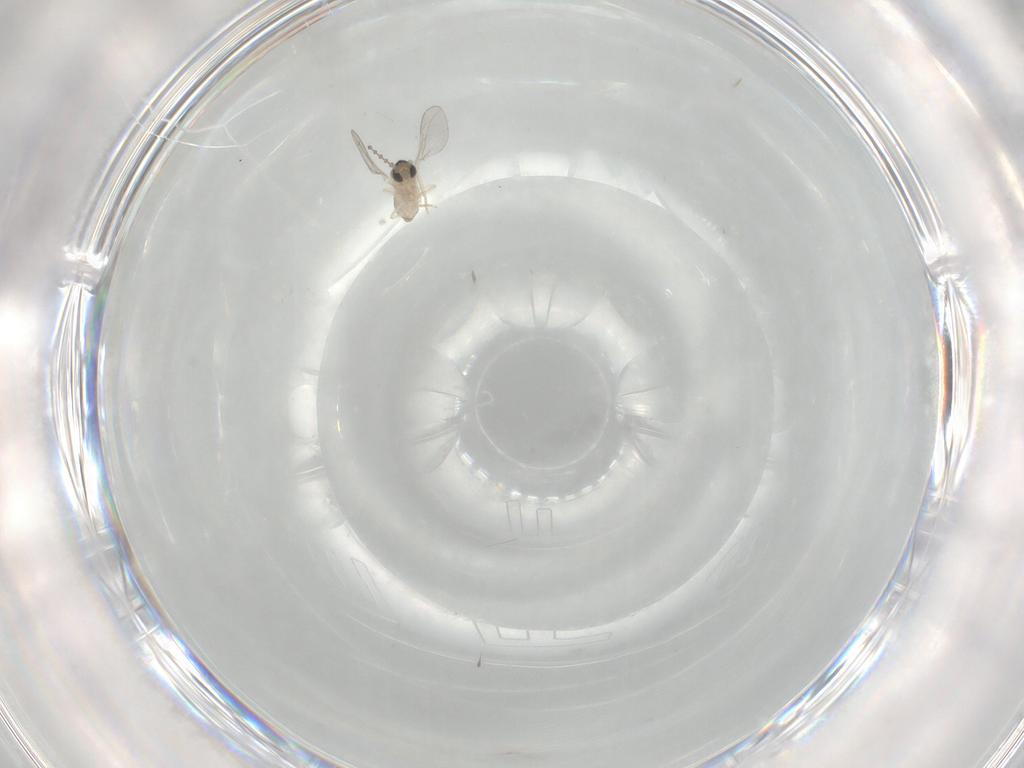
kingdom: Animalia
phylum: Arthropoda
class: Insecta
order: Diptera
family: Cecidomyiidae
